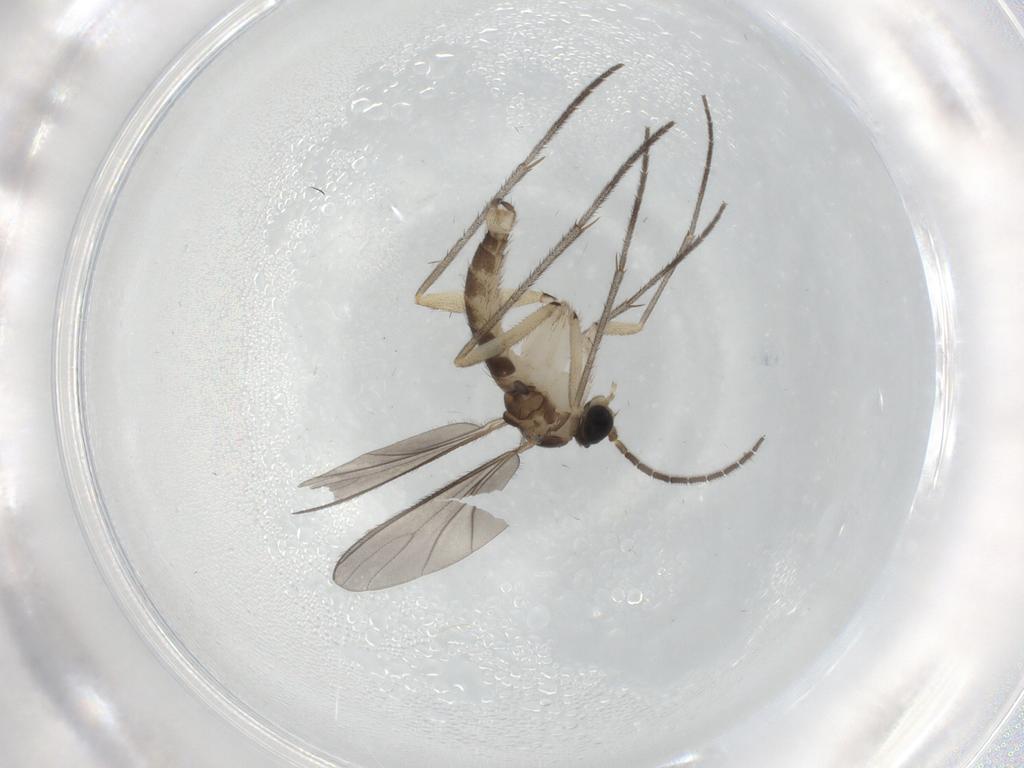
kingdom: Animalia
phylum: Arthropoda
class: Insecta
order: Diptera
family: Sciaridae
